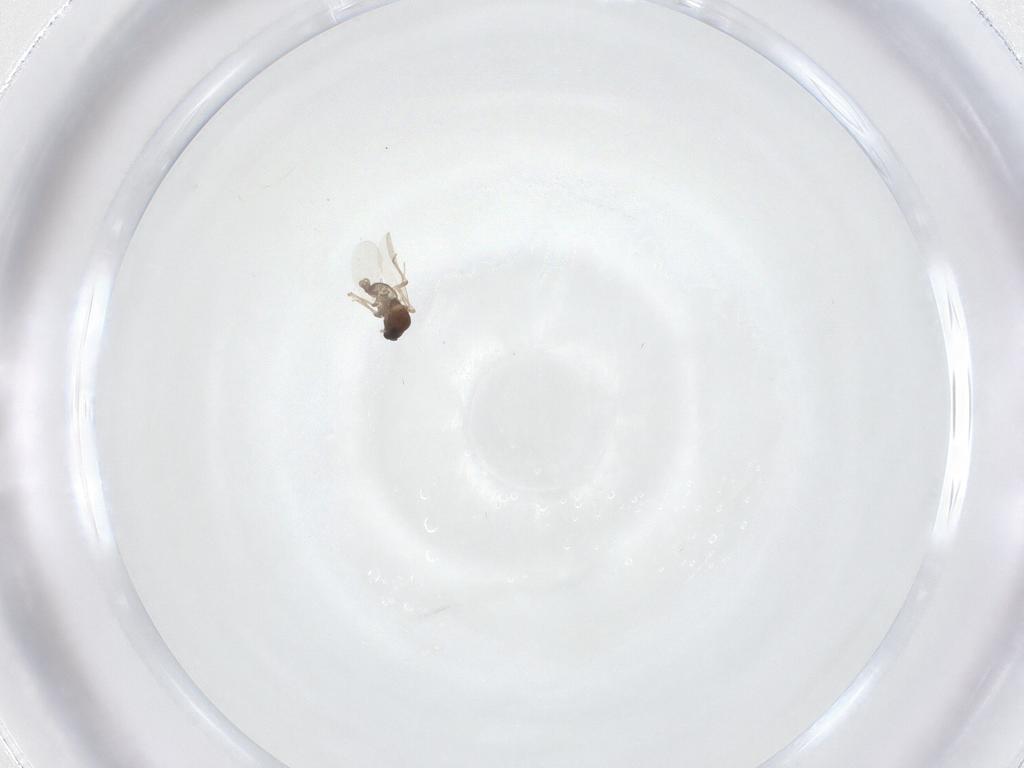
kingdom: Animalia
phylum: Arthropoda
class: Insecta
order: Diptera
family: Ceratopogonidae
